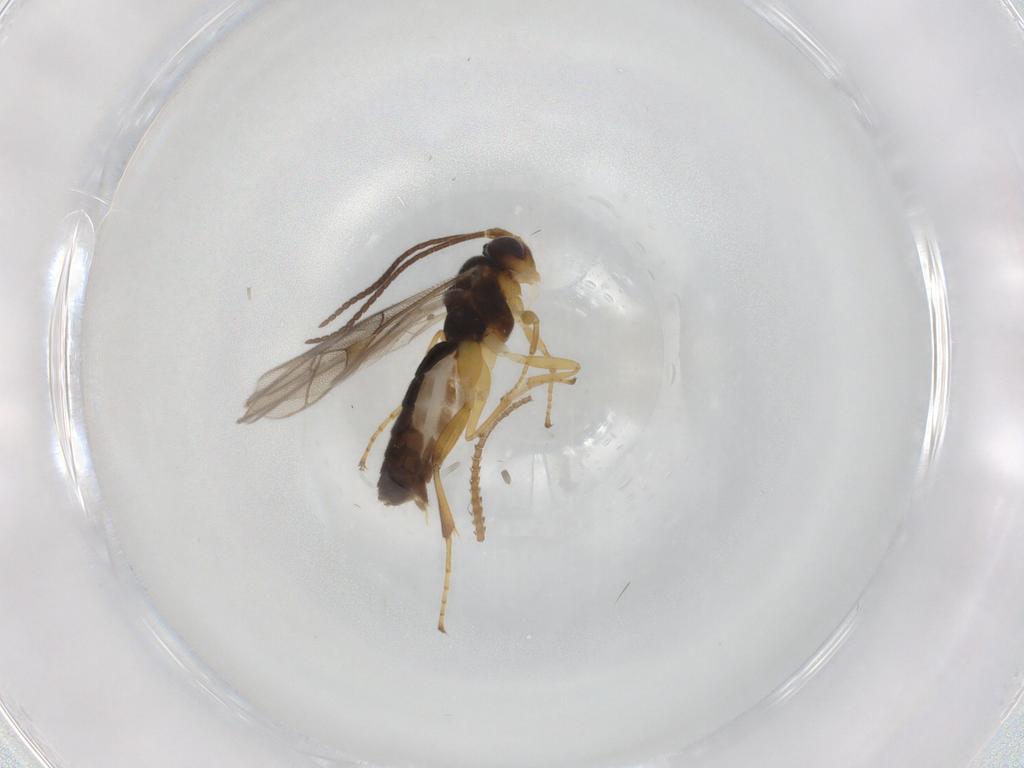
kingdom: Animalia
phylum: Arthropoda
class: Insecta
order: Hymenoptera
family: Ichneumonidae
